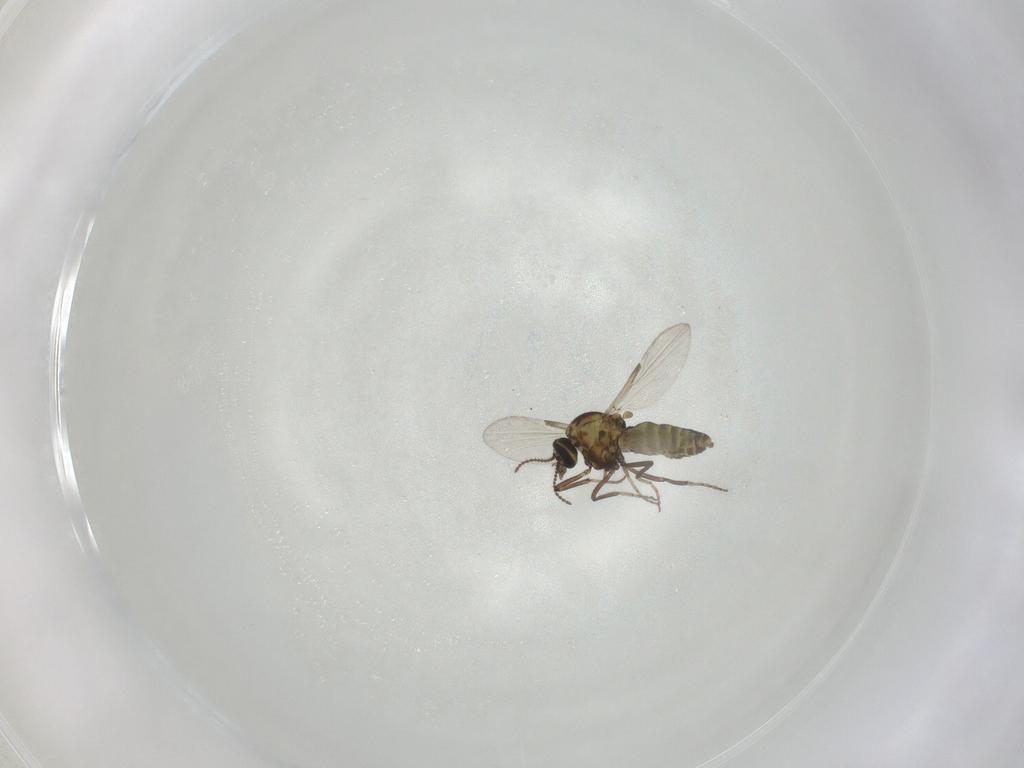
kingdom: Animalia
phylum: Arthropoda
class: Insecta
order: Diptera
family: Ceratopogonidae
